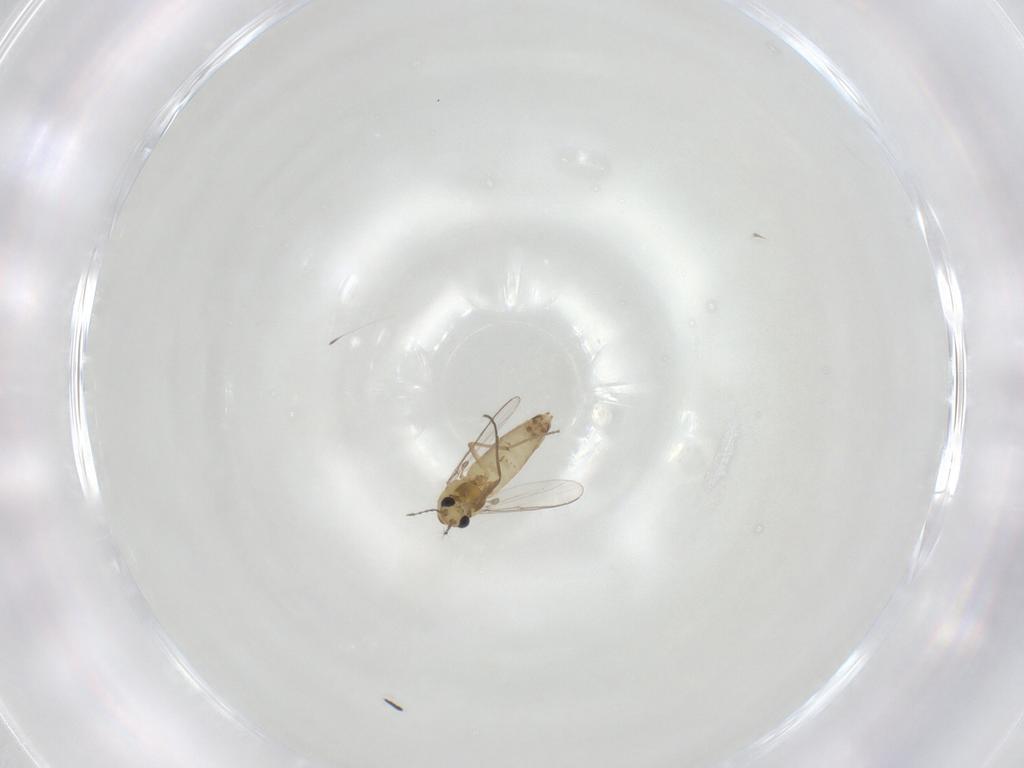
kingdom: Animalia
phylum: Arthropoda
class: Insecta
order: Diptera
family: Chironomidae
